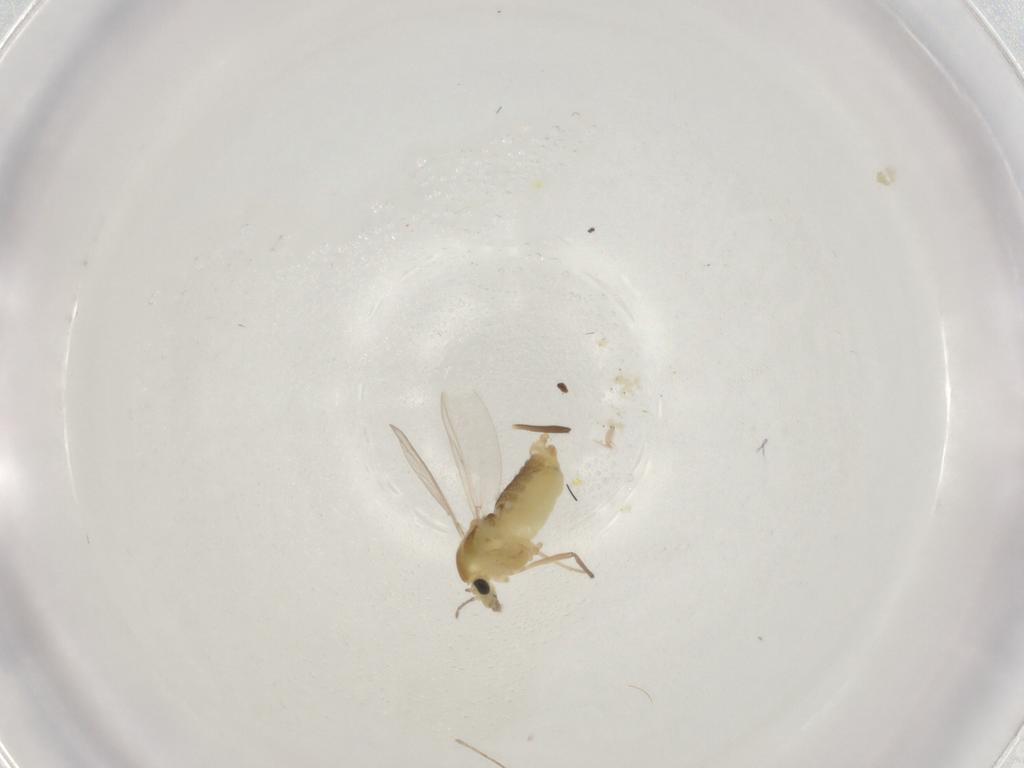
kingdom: Animalia
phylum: Arthropoda
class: Insecta
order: Diptera
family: Chironomidae
